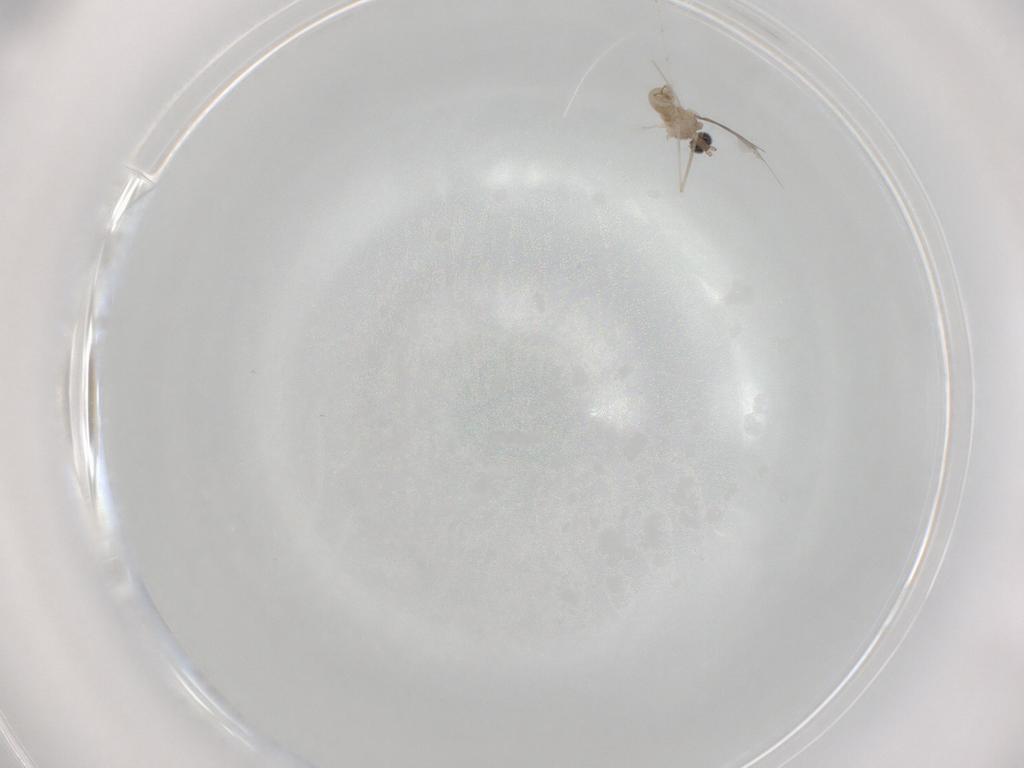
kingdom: Animalia
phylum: Arthropoda
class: Insecta
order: Diptera
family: Cecidomyiidae
